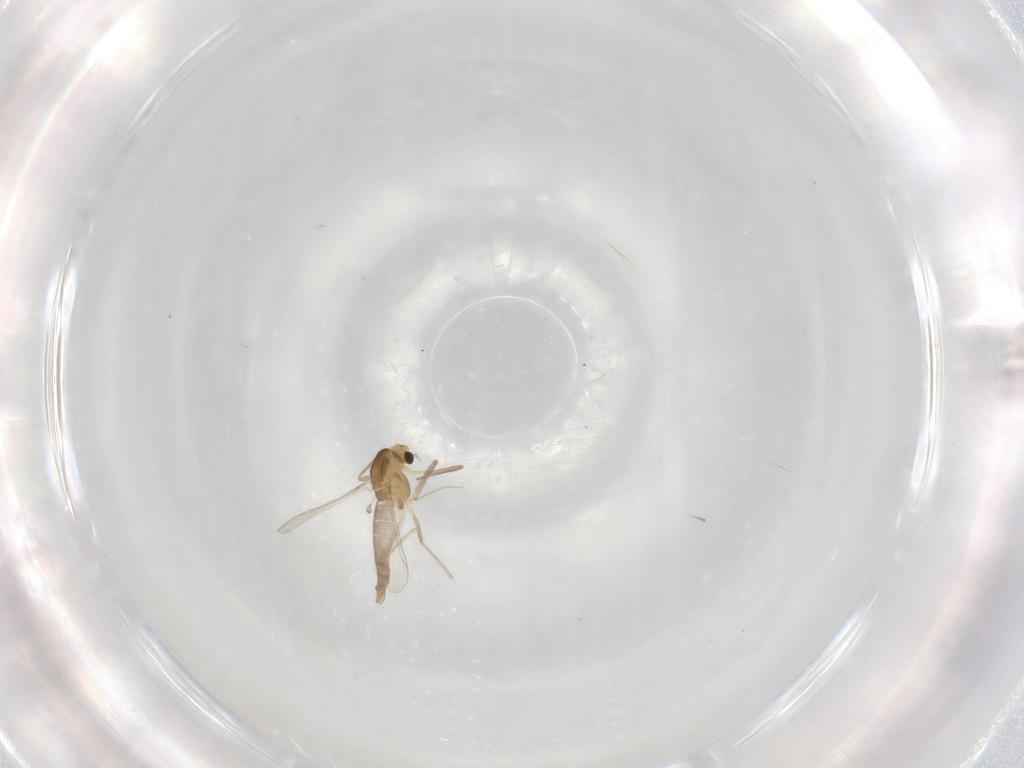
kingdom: Animalia
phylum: Arthropoda
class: Insecta
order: Diptera
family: Chironomidae
